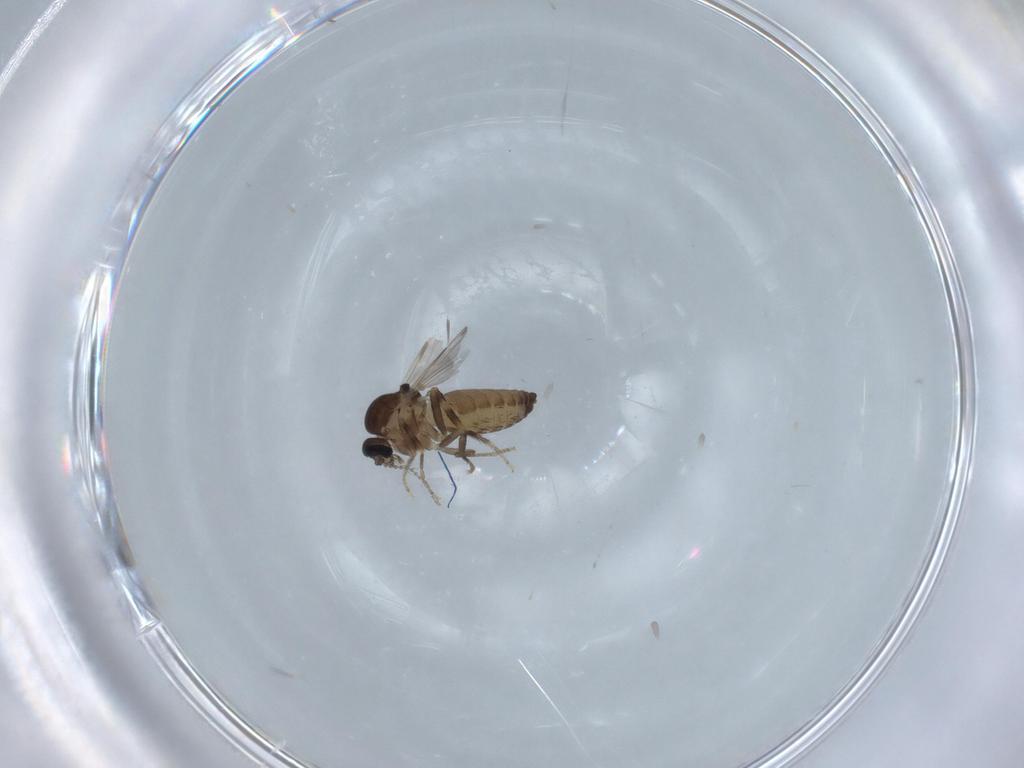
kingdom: Animalia
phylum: Arthropoda
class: Insecta
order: Diptera
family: Ceratopogonidae
